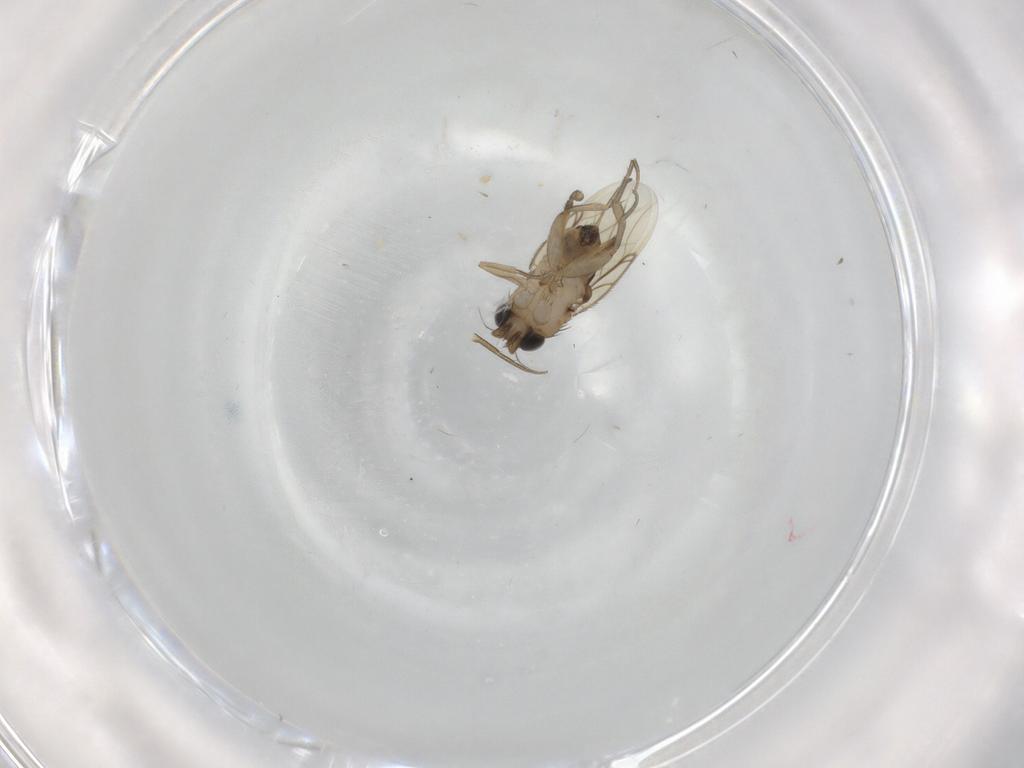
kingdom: Animalia
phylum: Arthropoda
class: Insecta
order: Diptera
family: Phoridae
